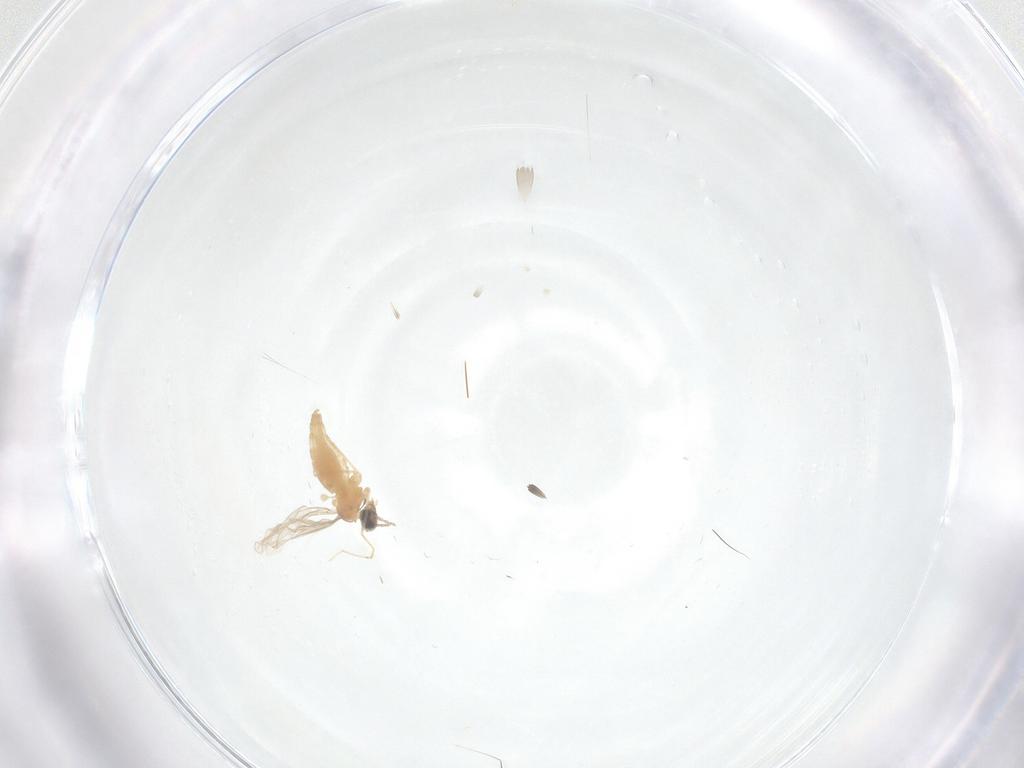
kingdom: Animalia
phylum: Arthropoda
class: Insecta
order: Diptera
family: Cecidomyiidae
